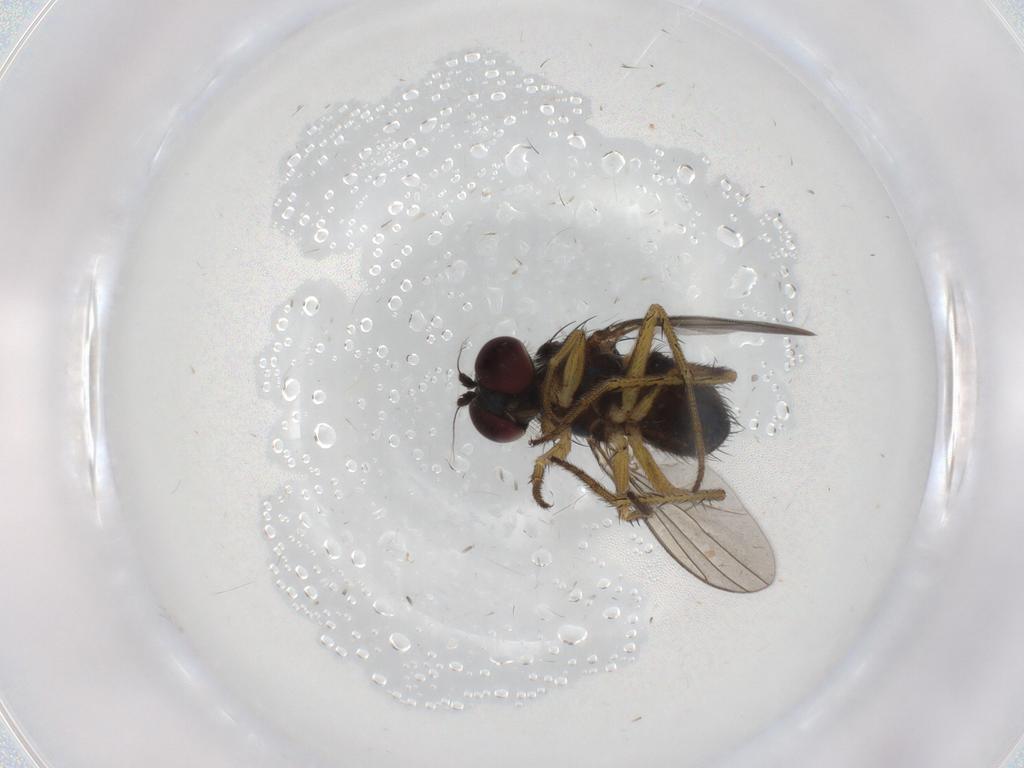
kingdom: Animalia
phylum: Arthropoda
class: Insecta
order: Diptera
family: Dolichopodidae
